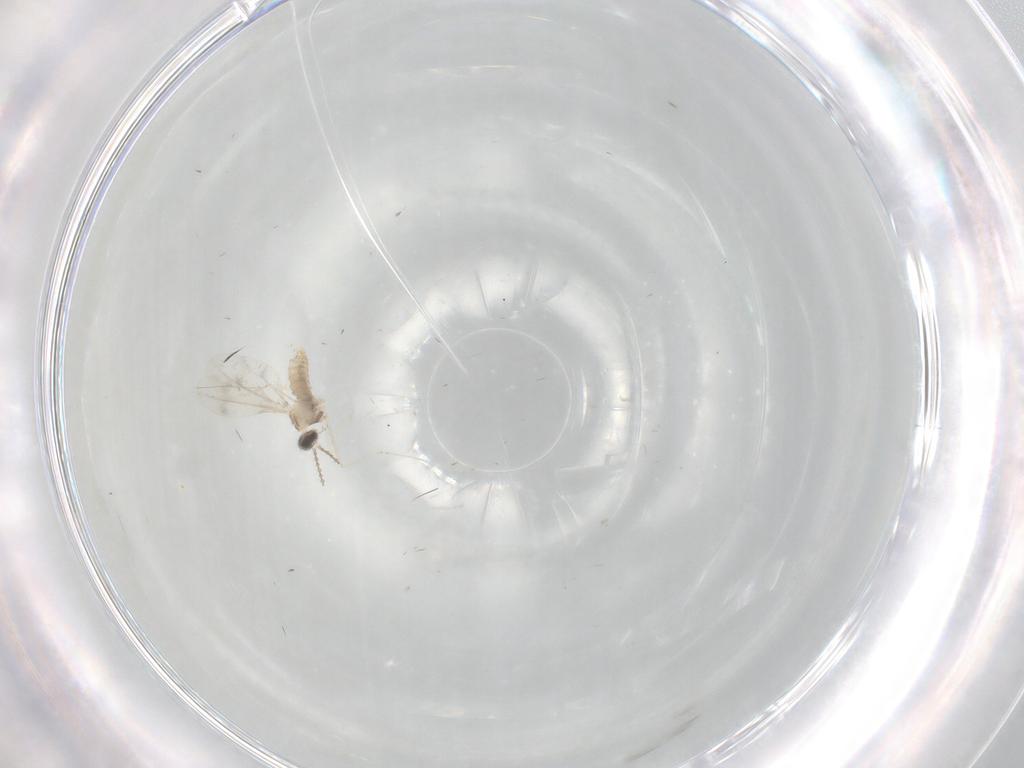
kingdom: Animalia
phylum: Arthropoda
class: Insecta
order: Diptera
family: Cecidomyiidae
